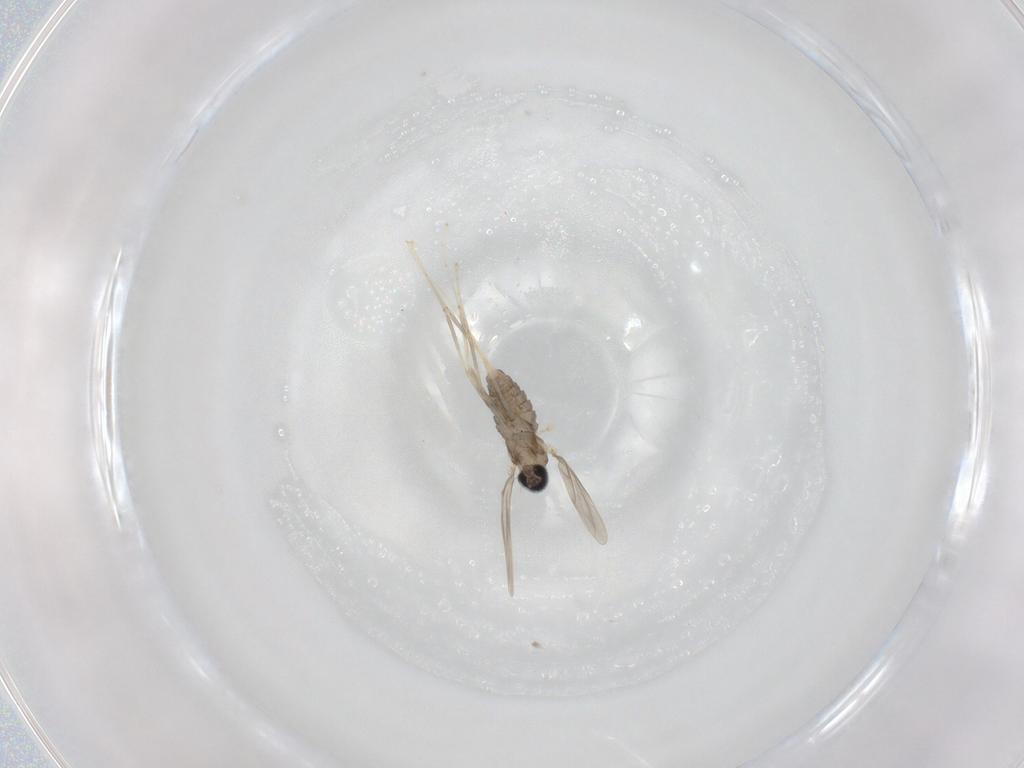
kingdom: Animalia
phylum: Arthropoda
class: Insecta
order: Diptera
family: Cecidomyiidae
